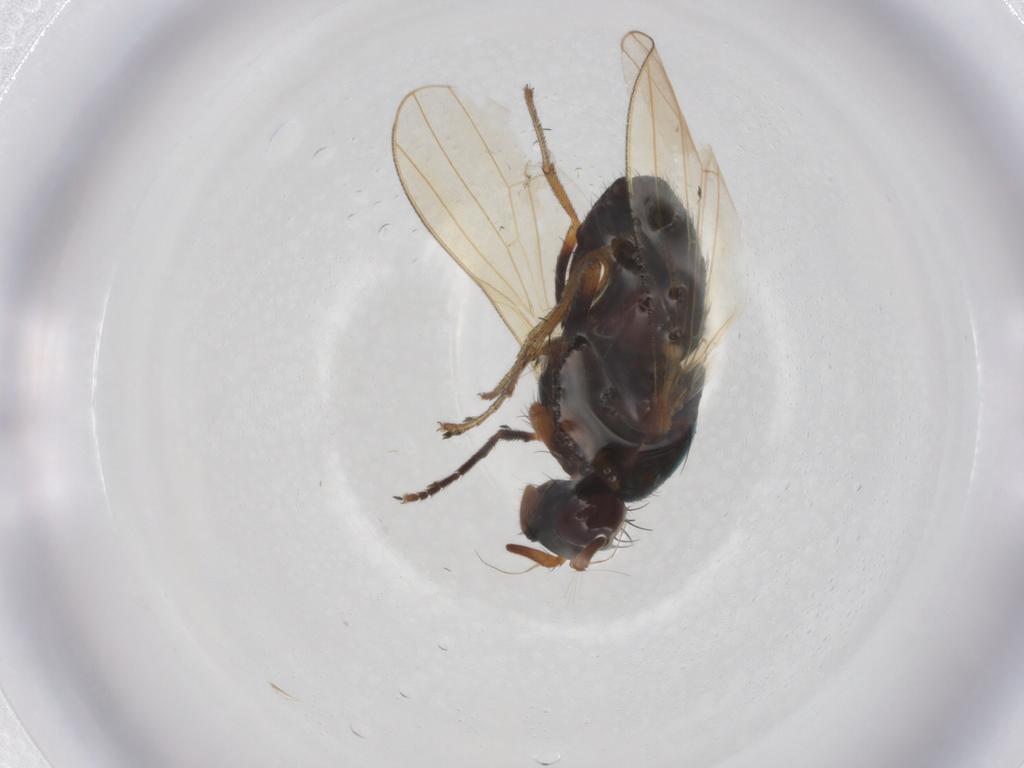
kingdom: Animalia
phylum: Arthropoda
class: Insecta
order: Diptera
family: Lauxaniidae
